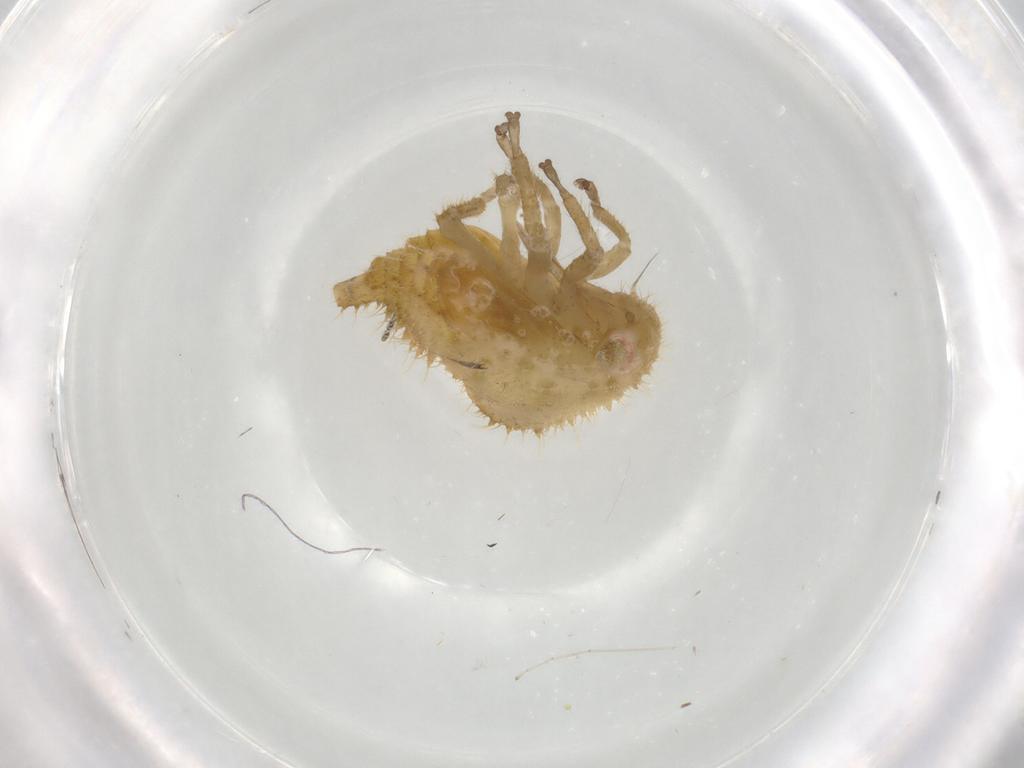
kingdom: Animalia
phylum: Arthropoda
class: Insecta
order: Hemiptera
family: Membracidae
